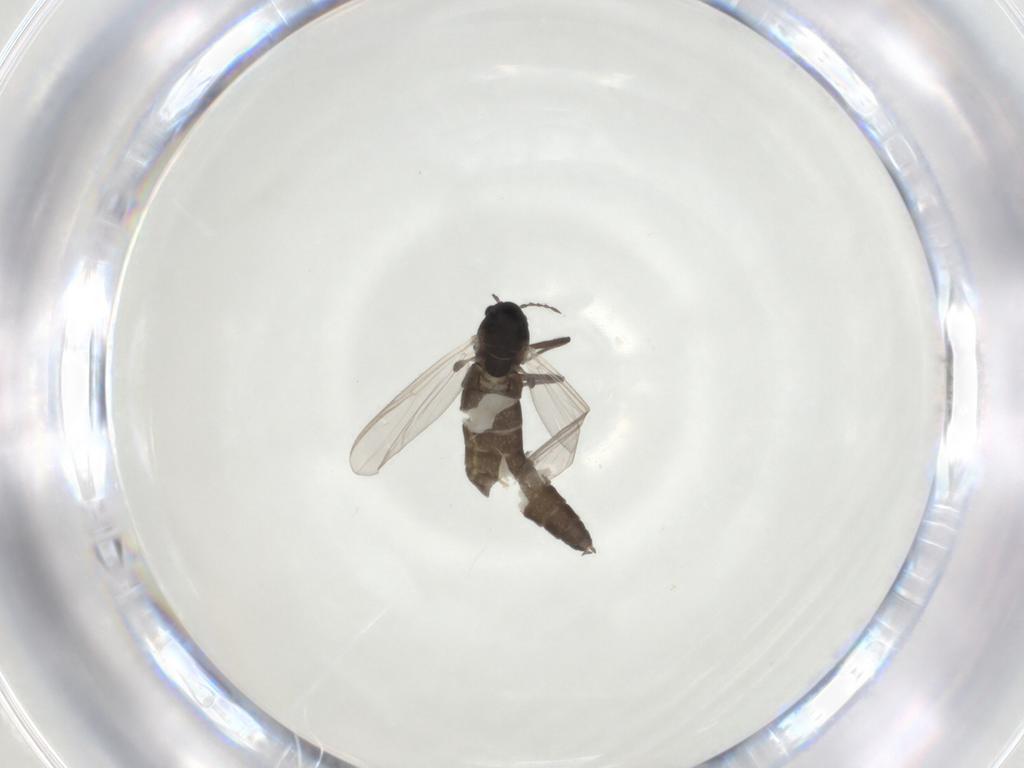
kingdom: Animalia
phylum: Arthropoda
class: Insecta
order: Diptera
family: Chironomidae
